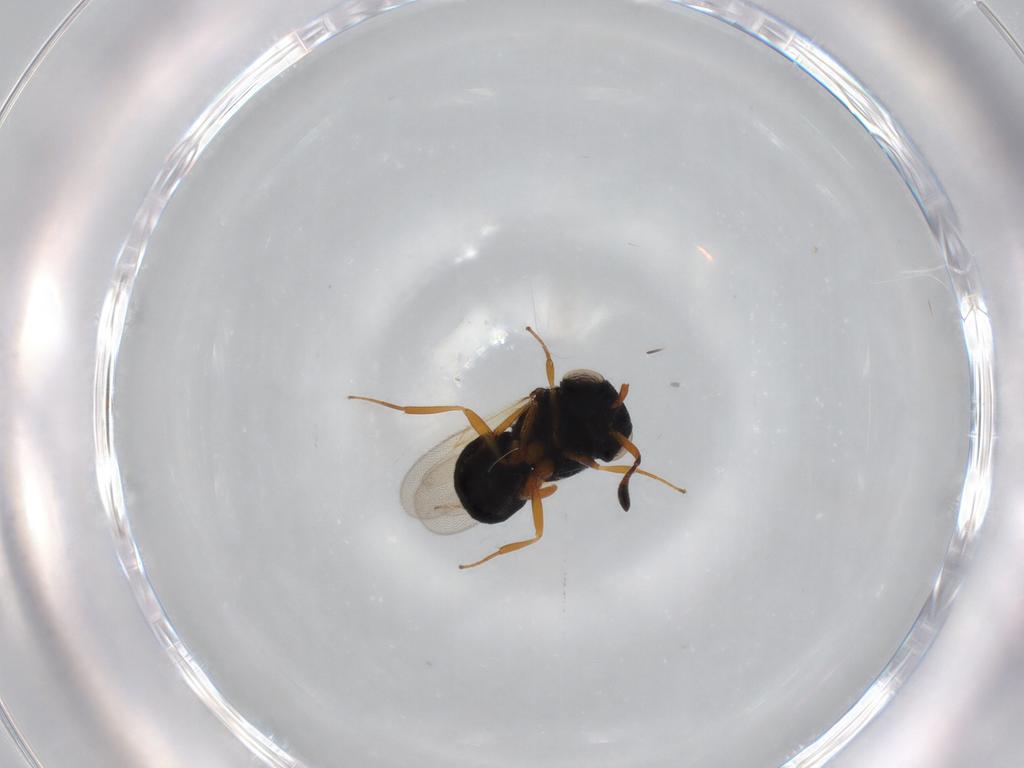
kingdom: Animalia
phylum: Arthropoda
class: Insecta
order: Hymenoptera
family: Scelionidae
